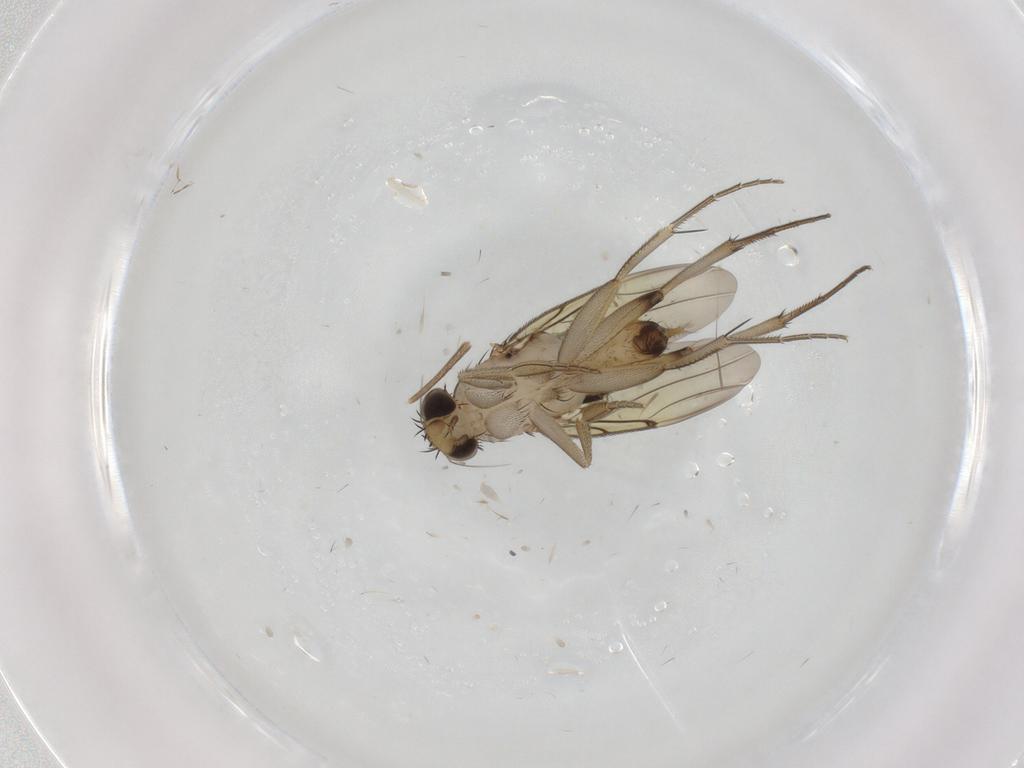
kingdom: Animalia
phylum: Arthropoda
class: Insecta
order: Diptera
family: Phoridae
